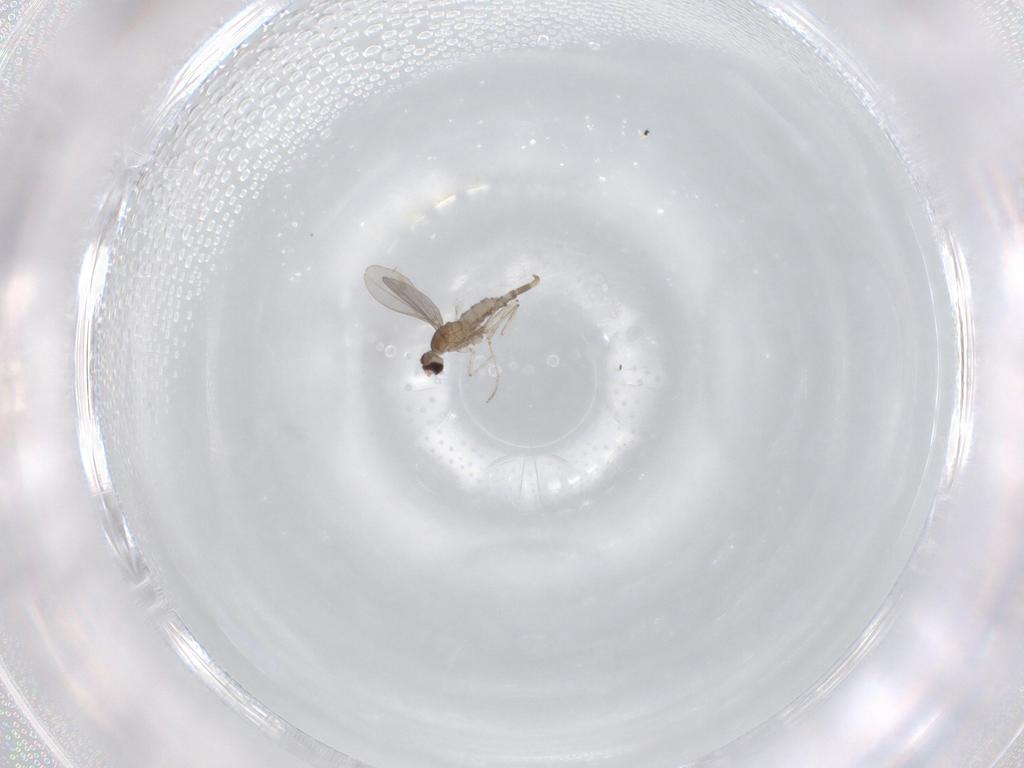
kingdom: Animalia
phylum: Arthropoda
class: Insecta
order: Diptera
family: Cecidomyiidae
